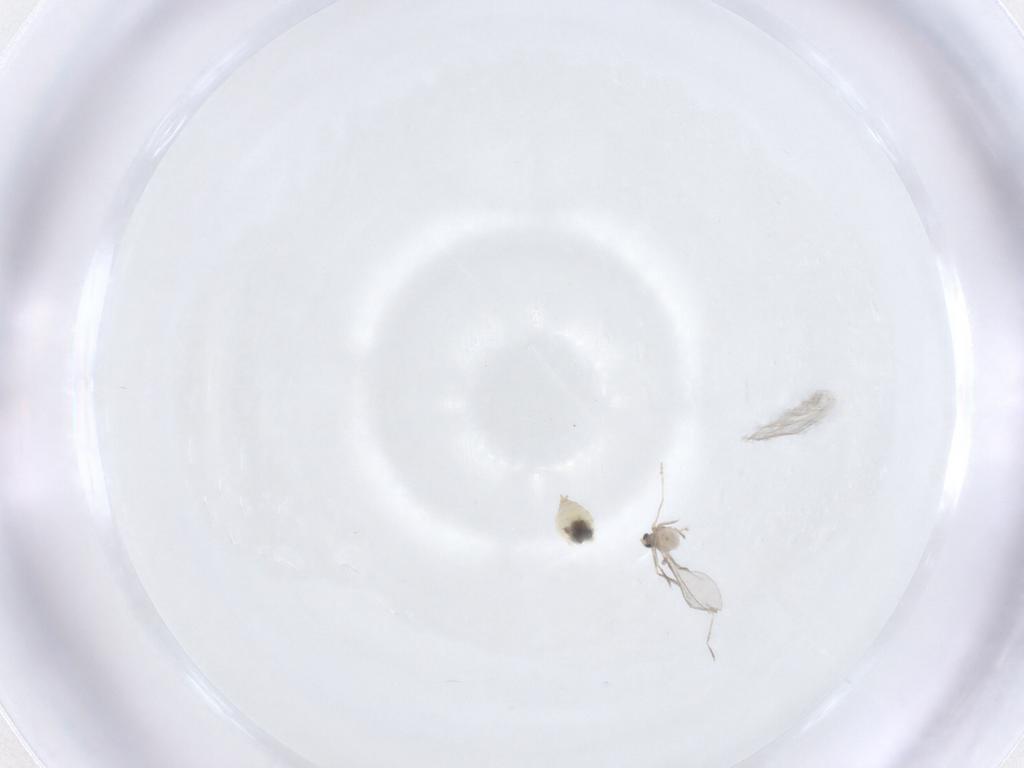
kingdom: Animalia
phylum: Arthropoda
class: Insecta
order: Diptera
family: Cecidomyiidae
